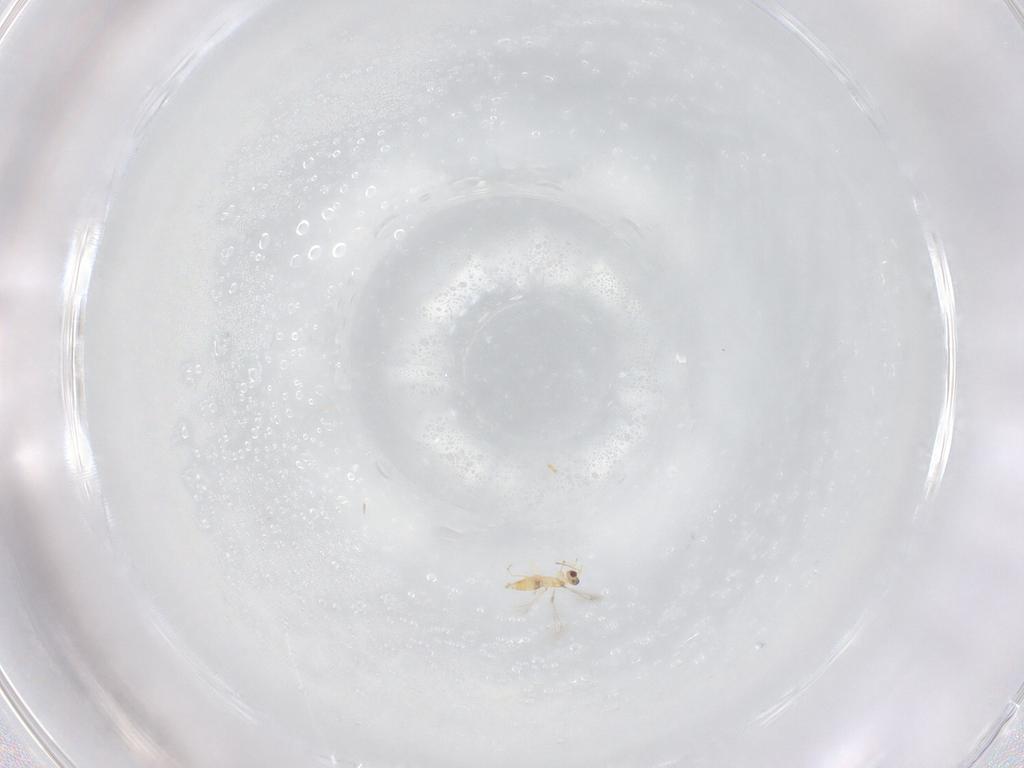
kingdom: Animalia
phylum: Arthropoda
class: Insecta
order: Hymenoptera
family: Mymaridae
